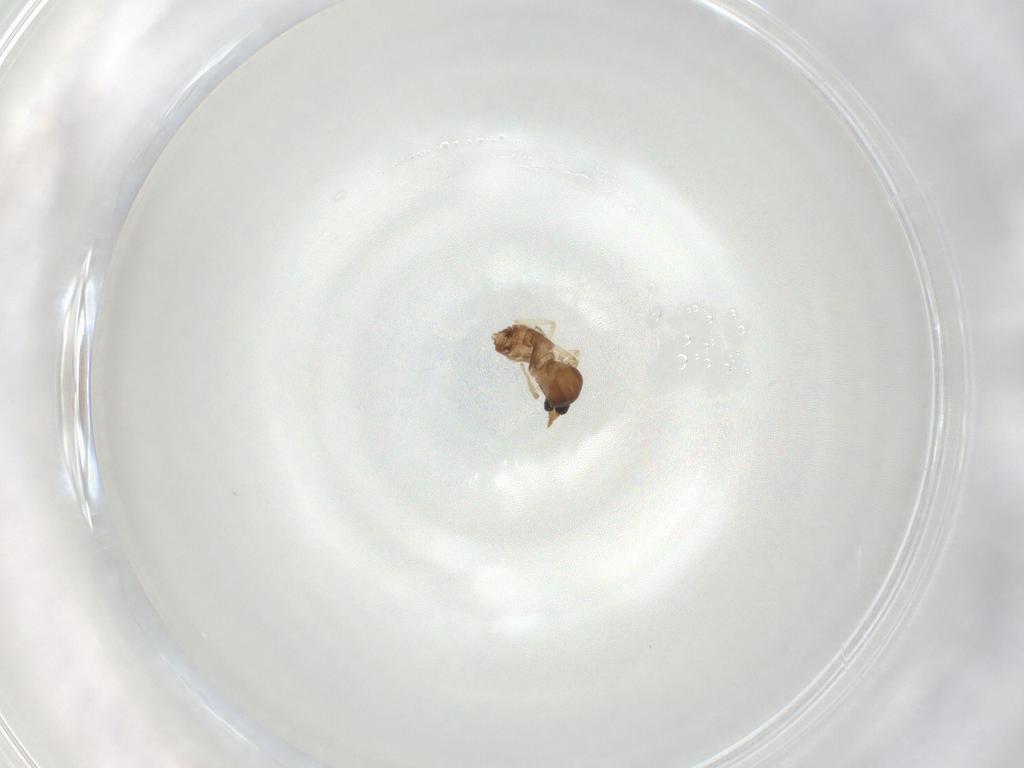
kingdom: Animalia
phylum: Arthropoda
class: Insecta
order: Diptera
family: Ceratopogonidae
